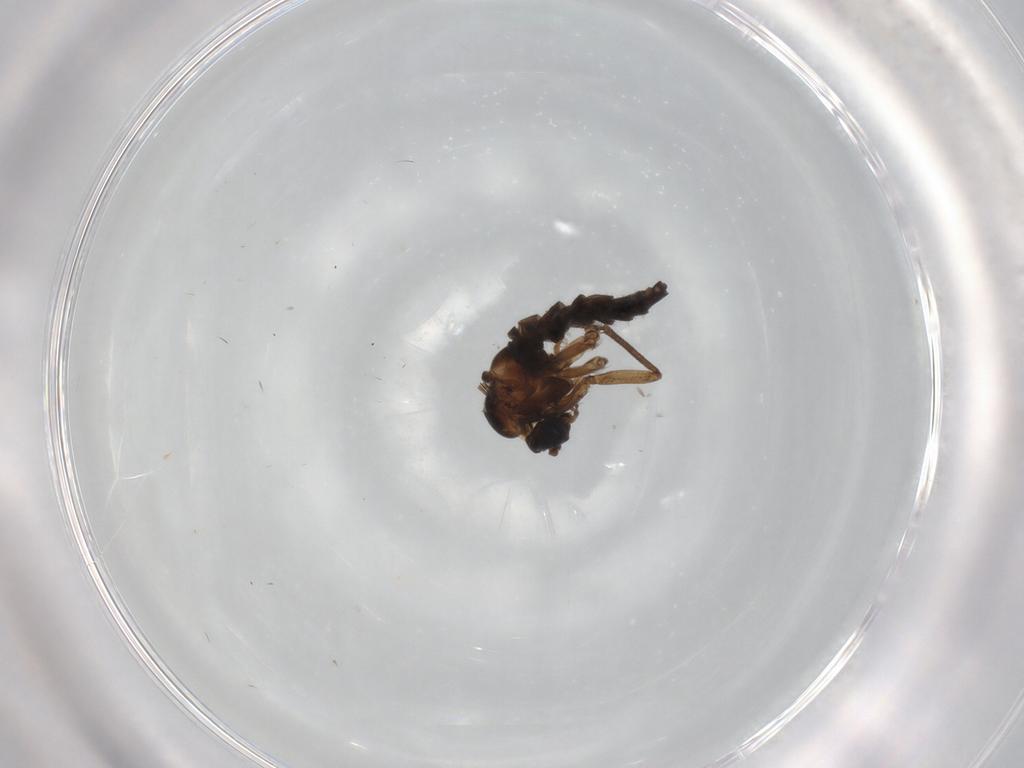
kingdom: Animalia
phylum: Arthropoda
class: Insecta
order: Diptera
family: Sciaridae
